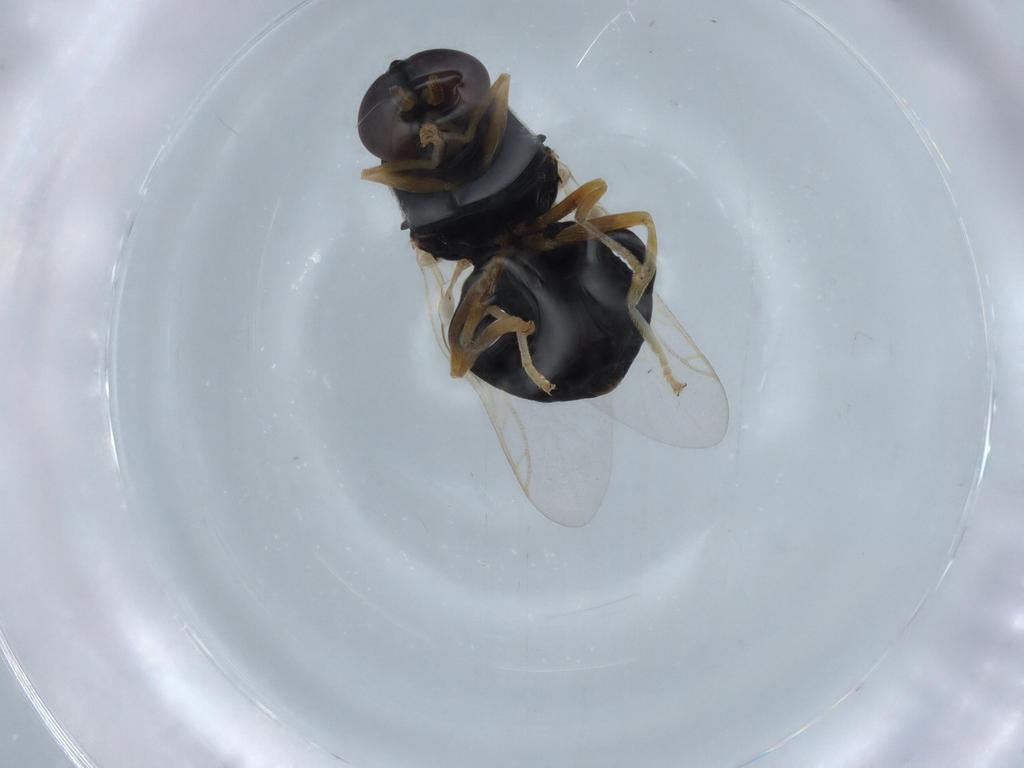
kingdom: Animalia
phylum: Arthropoda
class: Insecta
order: Diptera
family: Stratiomyidae
